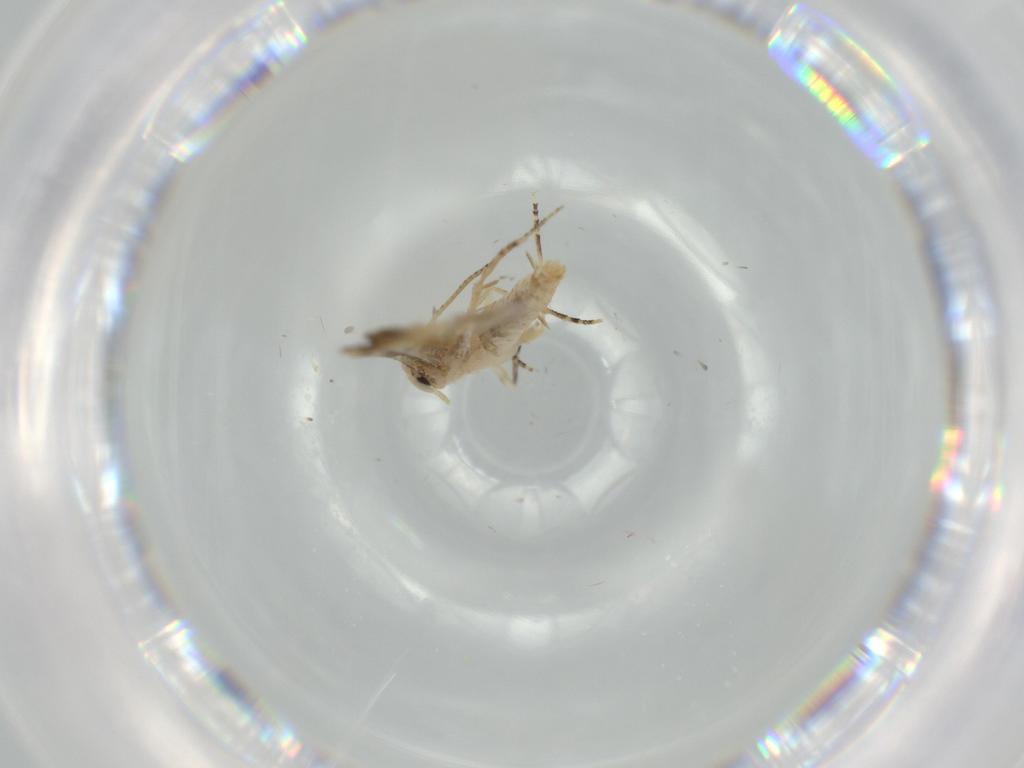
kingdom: Animalia
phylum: Arthropoda
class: Insecta
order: Lepidoptera
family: Bucculatricidae
